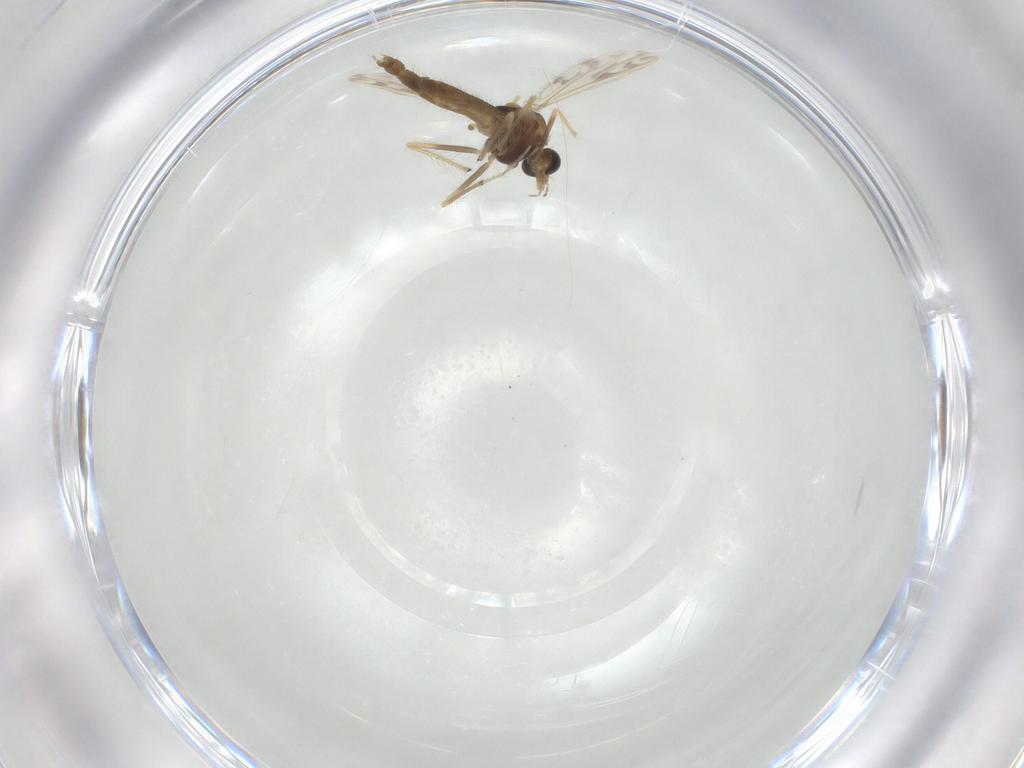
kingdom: Animalia
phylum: Arthropoda
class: Insecta
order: Diptera
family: Chironomidae
